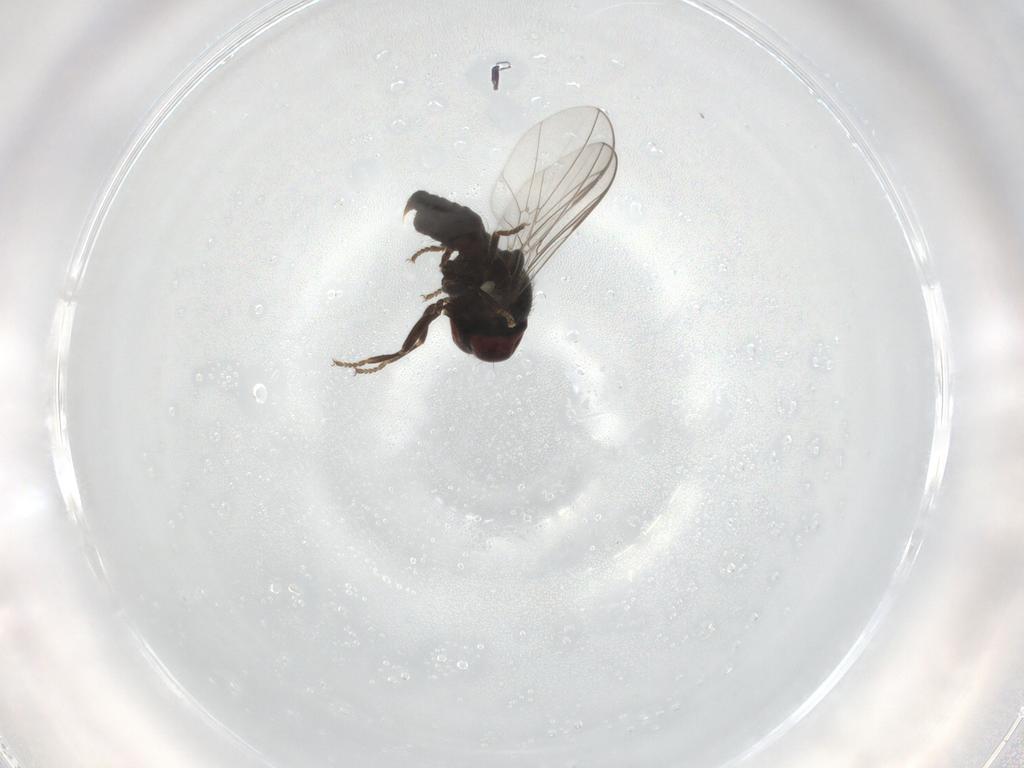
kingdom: Animalia
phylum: Arthropoda
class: Insecta
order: Diptera
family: Pipunculidae
